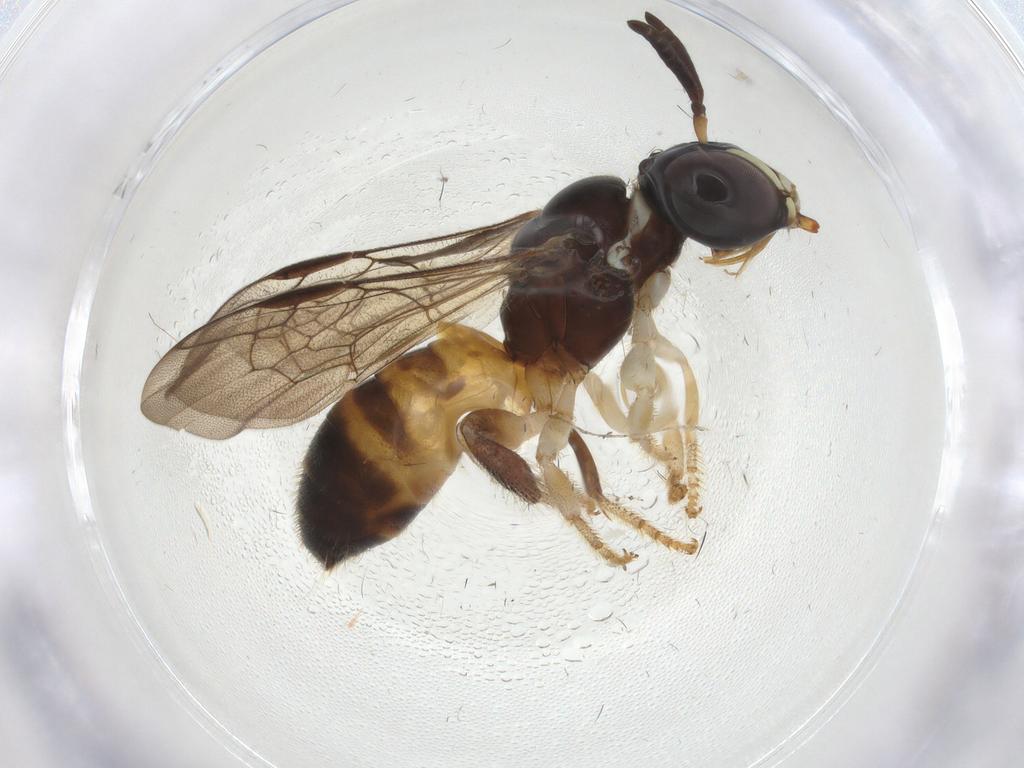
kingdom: Animalia
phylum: Arthropoda
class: Insecta
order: Hymenoptera
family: Apidae
